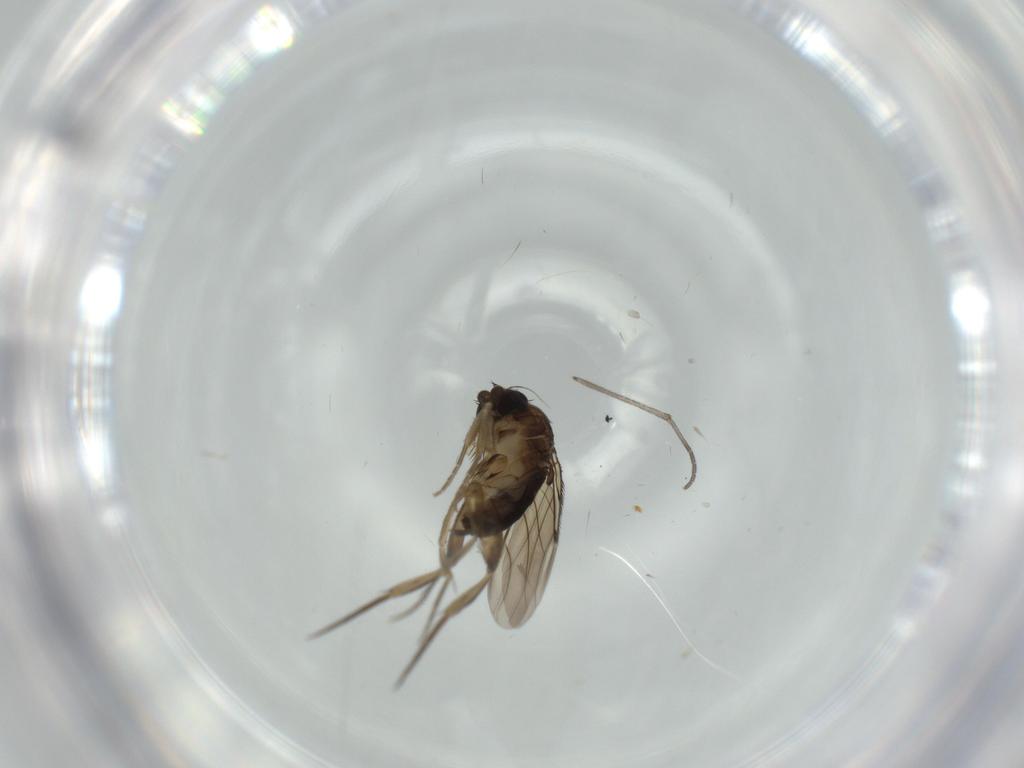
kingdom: Animalia
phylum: Arthropoda
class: Insecta
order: Diptera
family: Phoridae
